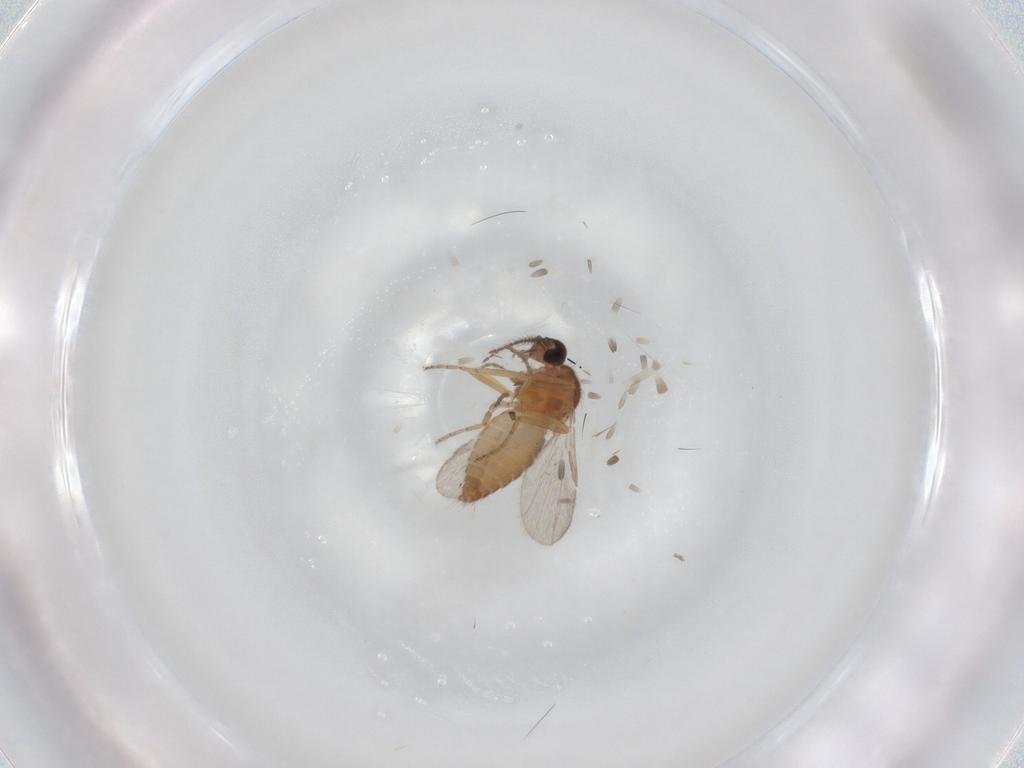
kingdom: Animalia
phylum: Arthropoda
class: Insecta
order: Diptera
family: Ceratopogonidae
